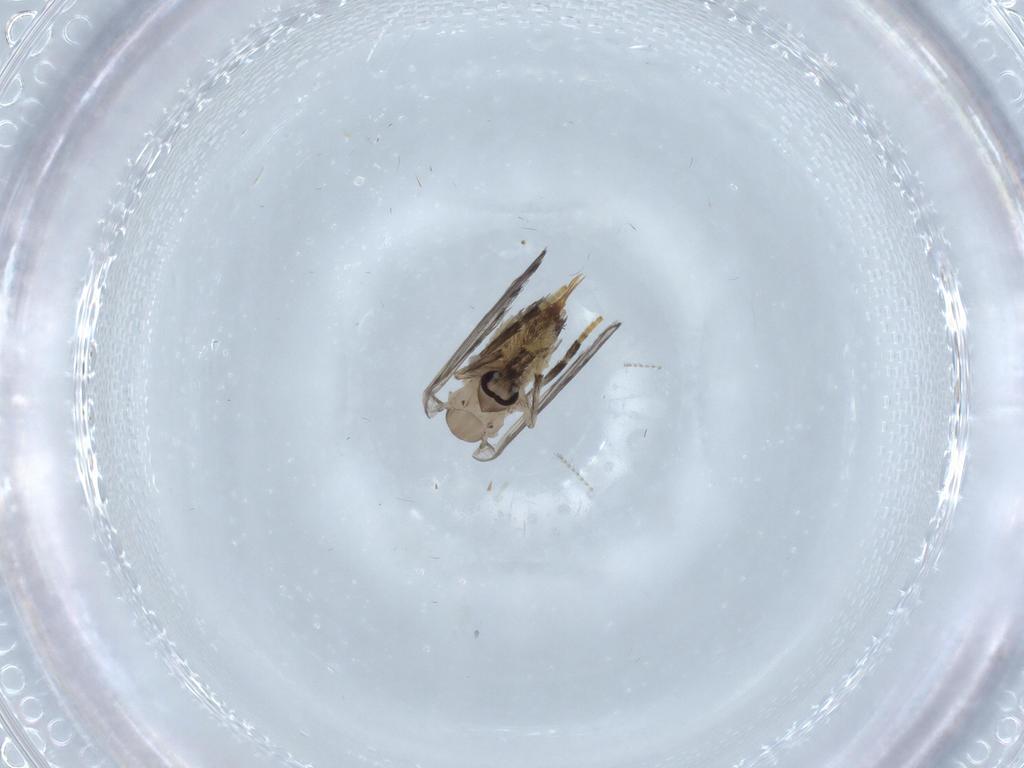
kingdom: Animalia
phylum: Arthropoda
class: Insecta
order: Diptera
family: Psychodidae
